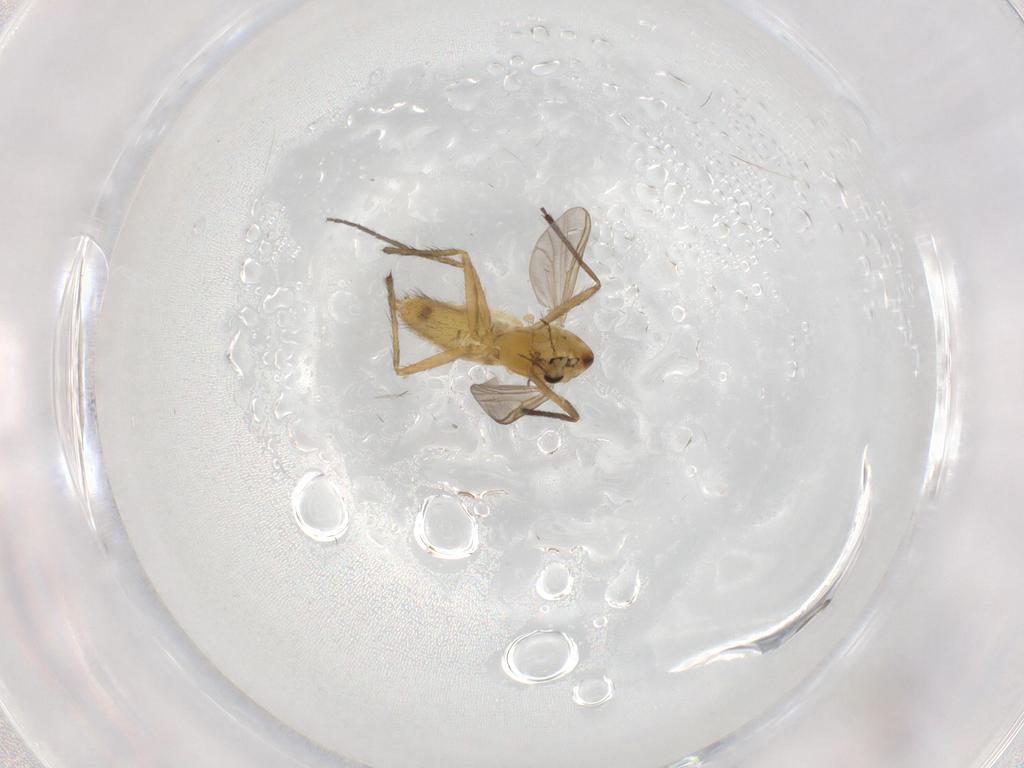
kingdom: Animalia
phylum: Arthropoda
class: Insecta
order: Diptera
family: Chironomidae
